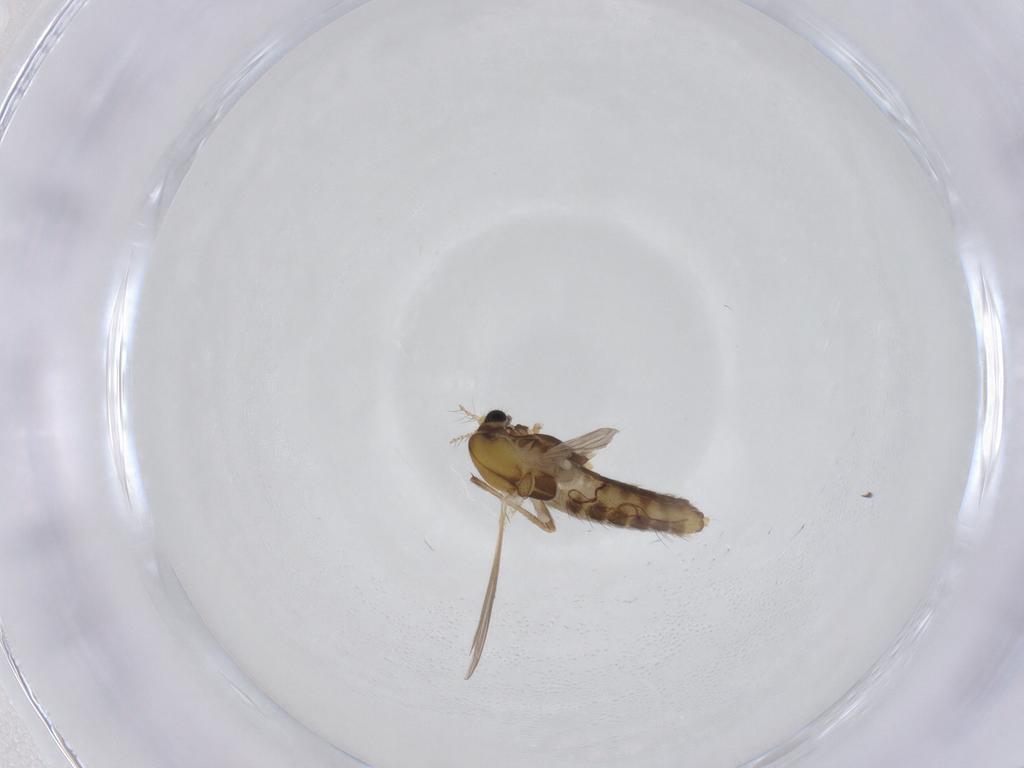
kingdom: Animalia
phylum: Arthropoda
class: Insecta
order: Diptera
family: Chironomidae
